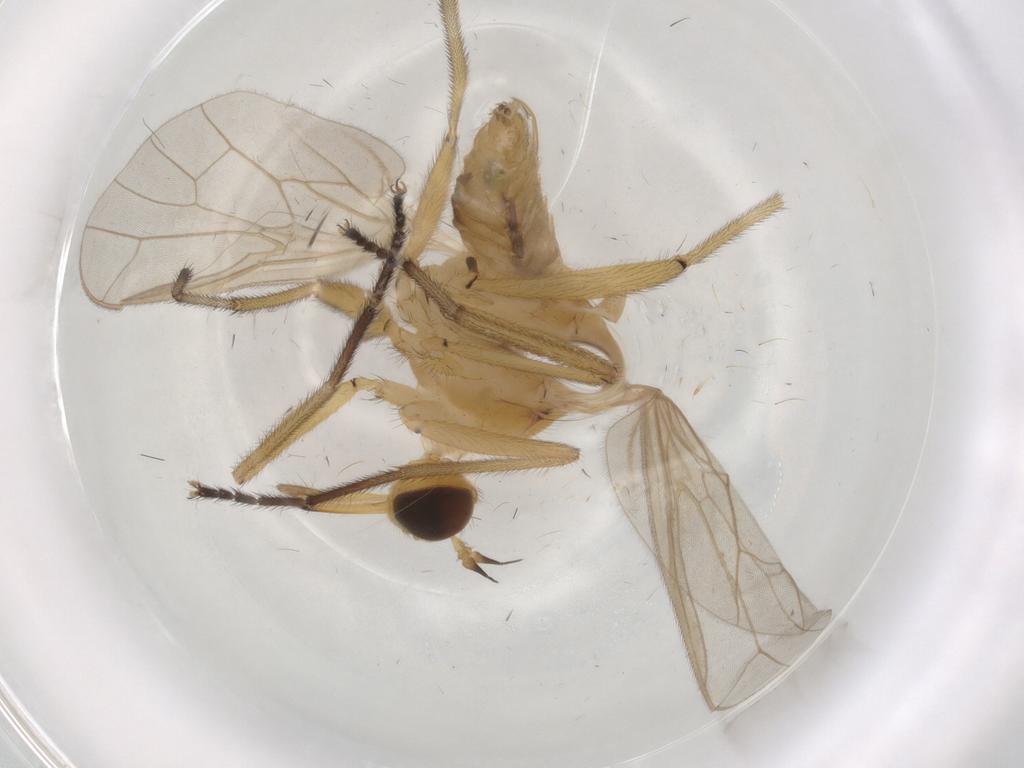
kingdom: Animalia
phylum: Arthropoda
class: Insecta
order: Diptera
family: Empididae
